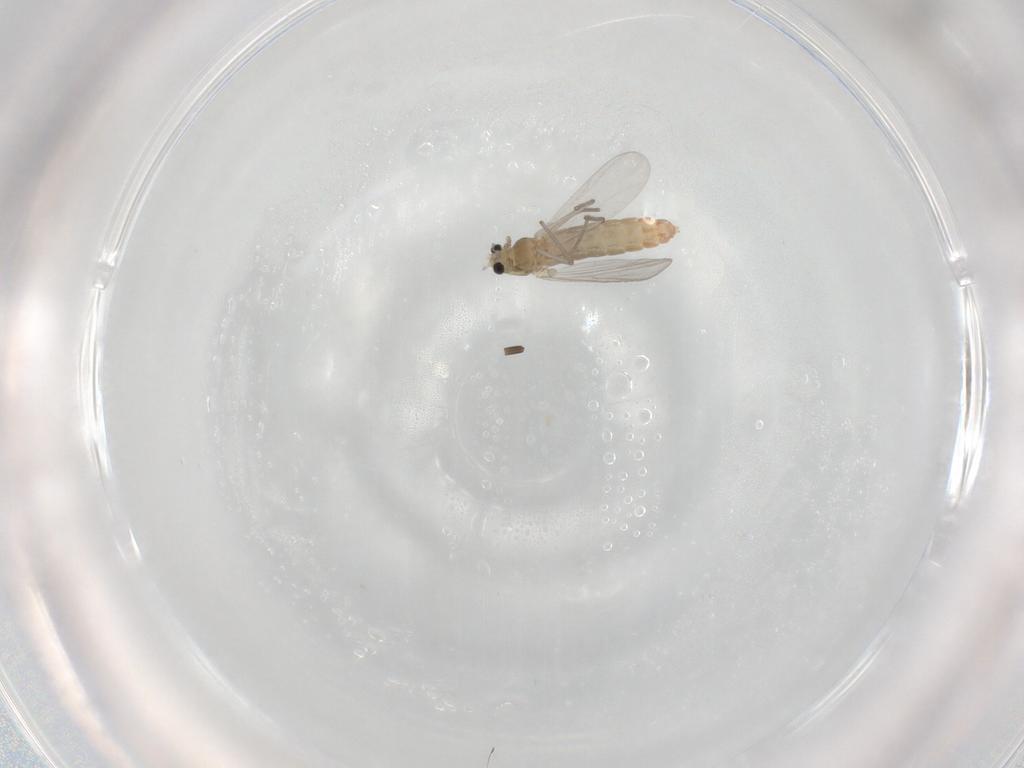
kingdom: Animalia
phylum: Arthropoda
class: Insecta
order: Diptera
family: Chironomidae
